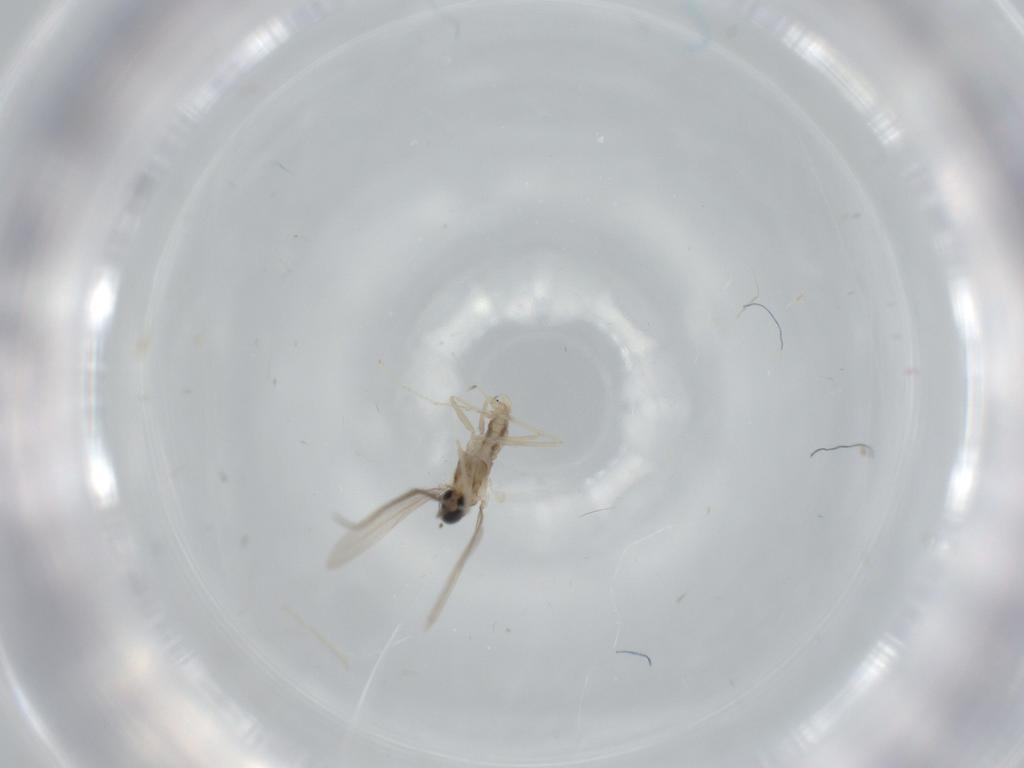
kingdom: Animalia
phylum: Arthropoda
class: Insecta
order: Diptera
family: Cecidomyiidae
